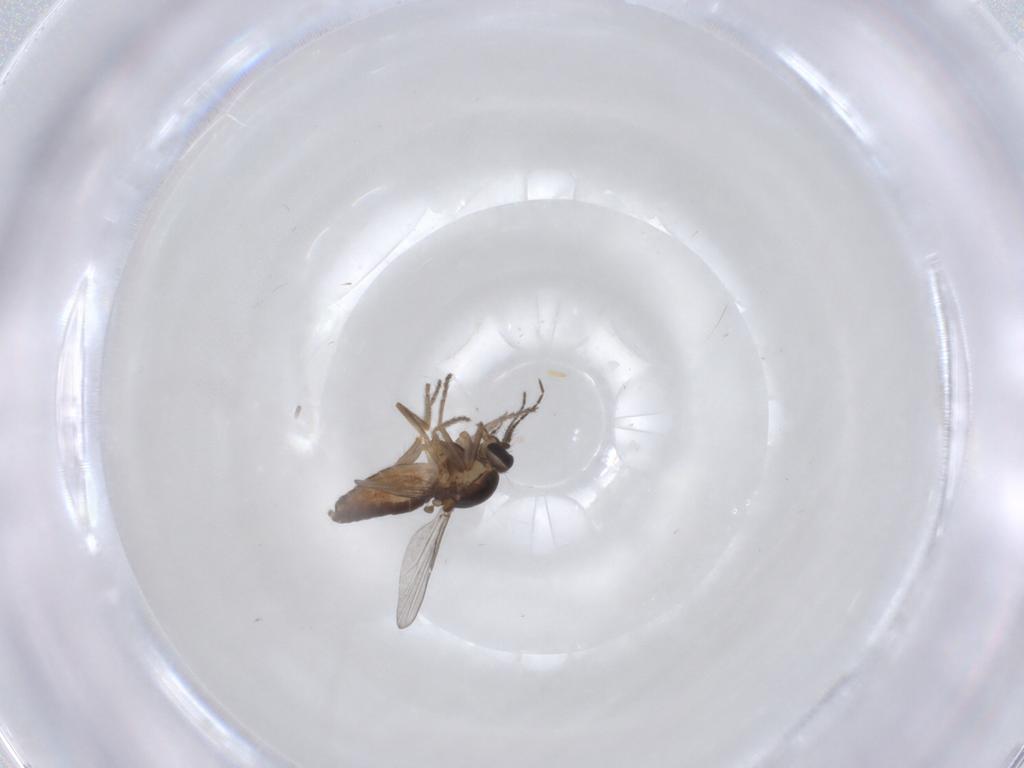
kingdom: Animalia
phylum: Arthropoda
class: Insecta
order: Diptera
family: Ceratopogonidae
